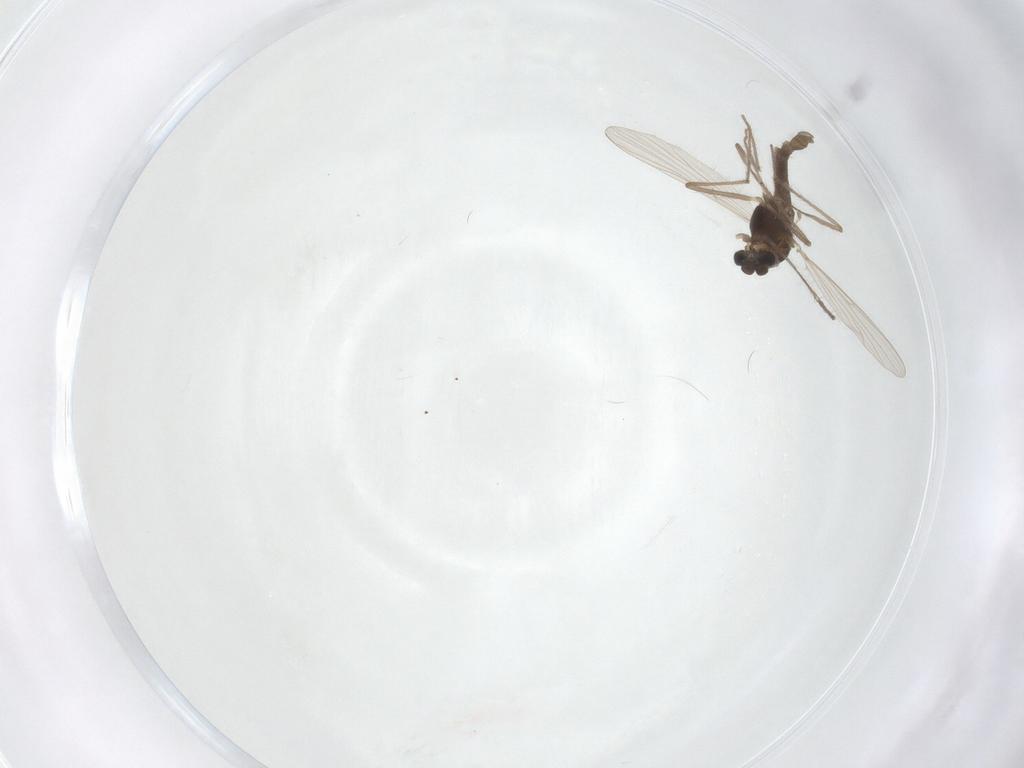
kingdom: Animalia
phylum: Arthropoda
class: Insecta
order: Diptera
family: Chironomidae
